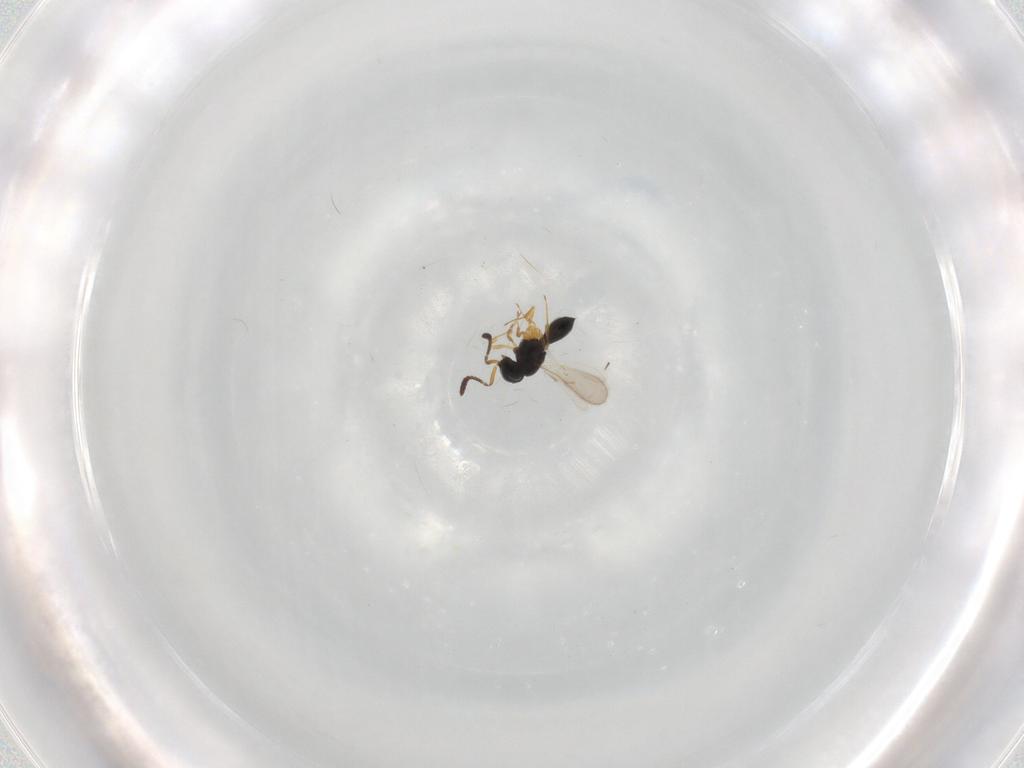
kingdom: Animalia
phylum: Arthropoda
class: Insecta
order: Hymenoptera
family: Scelionidae
